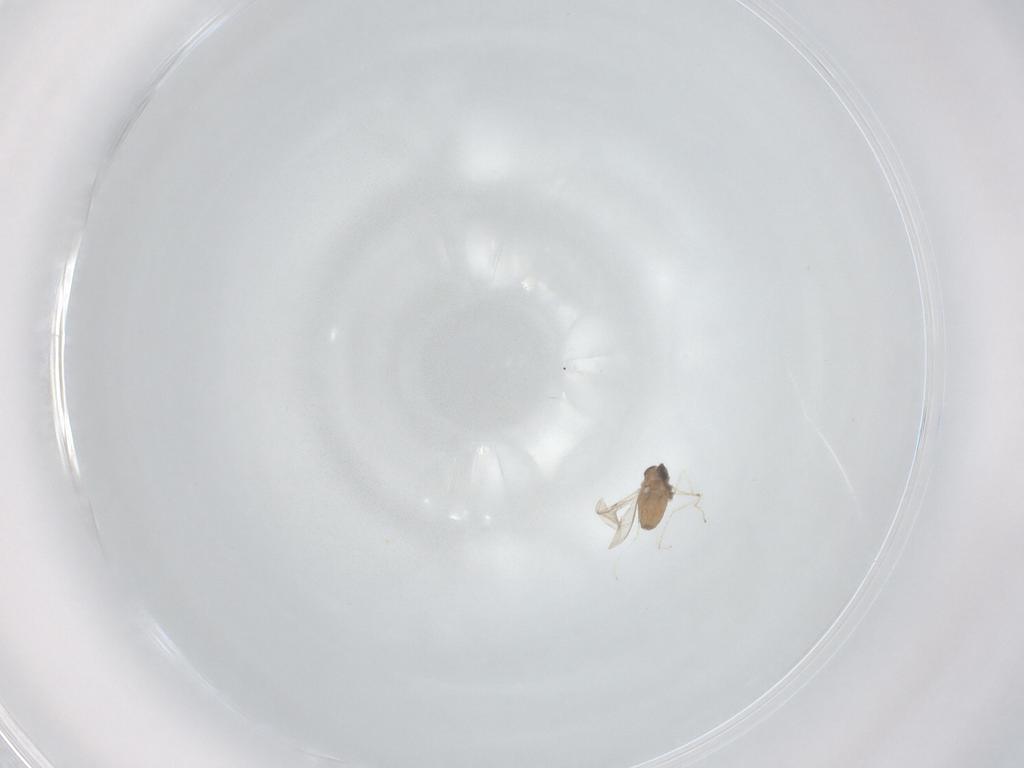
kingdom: Animalia
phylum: Arthropoda
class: Insecta
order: Diptera
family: Cecidomyiidae
